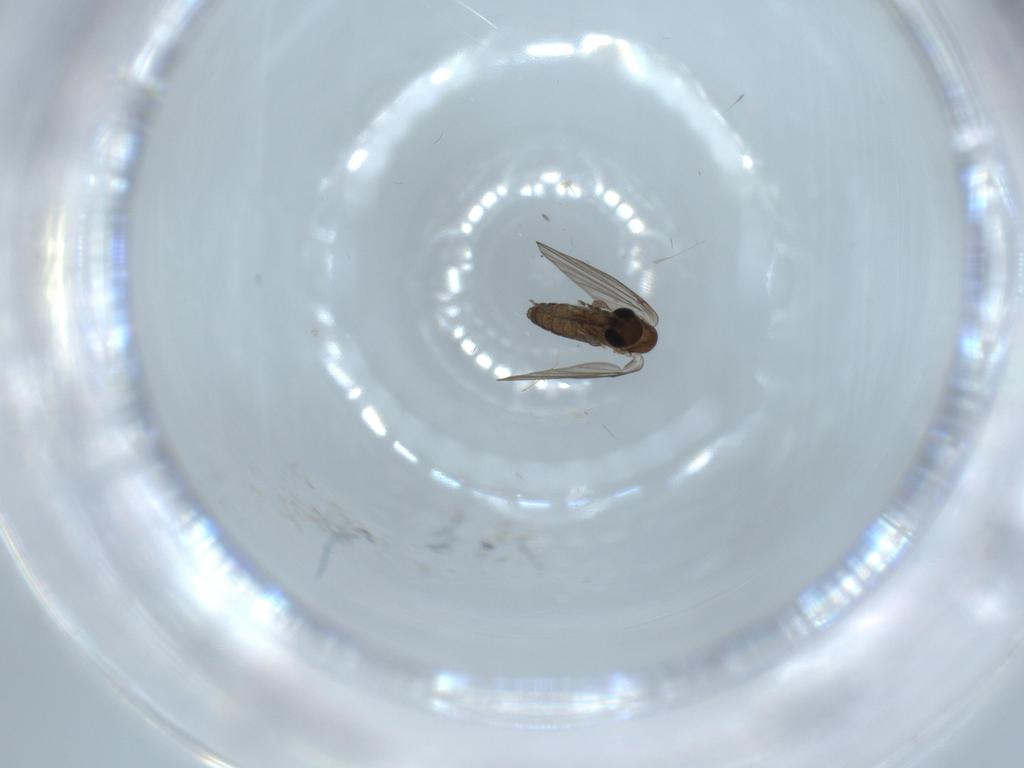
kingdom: Animalia
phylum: Arthropoda
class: Insecta
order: Diptera
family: Psychodidae
